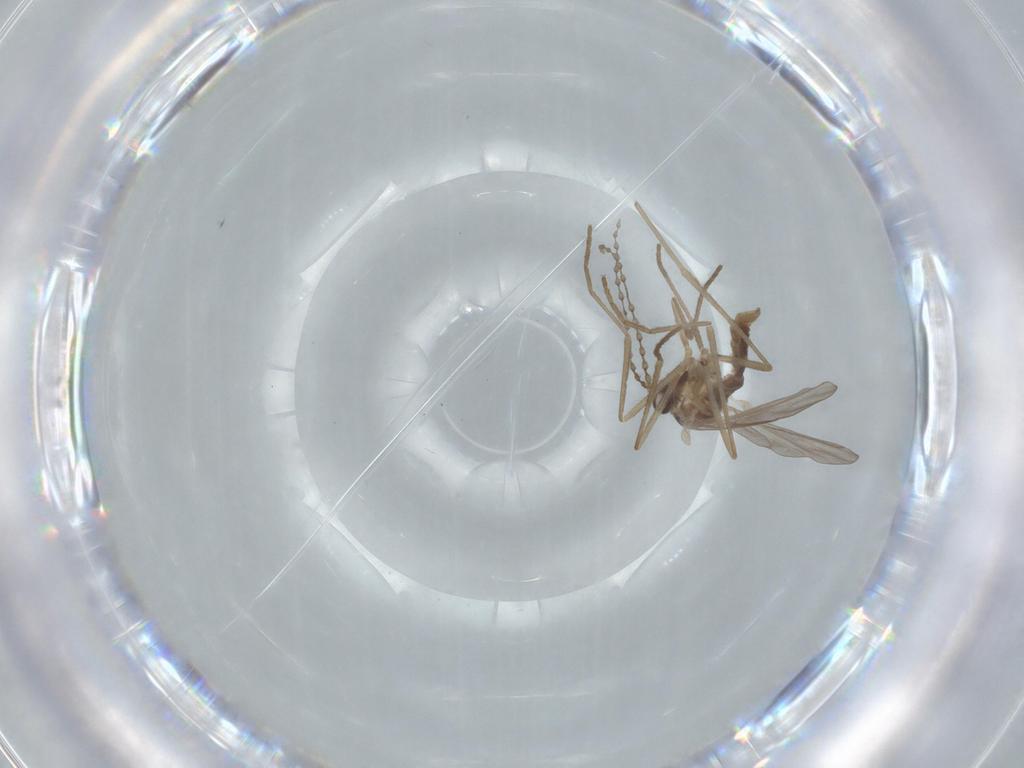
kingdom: Animalia
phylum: Arthropoda
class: Insecta
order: Diptera
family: Cecidomyiidae
